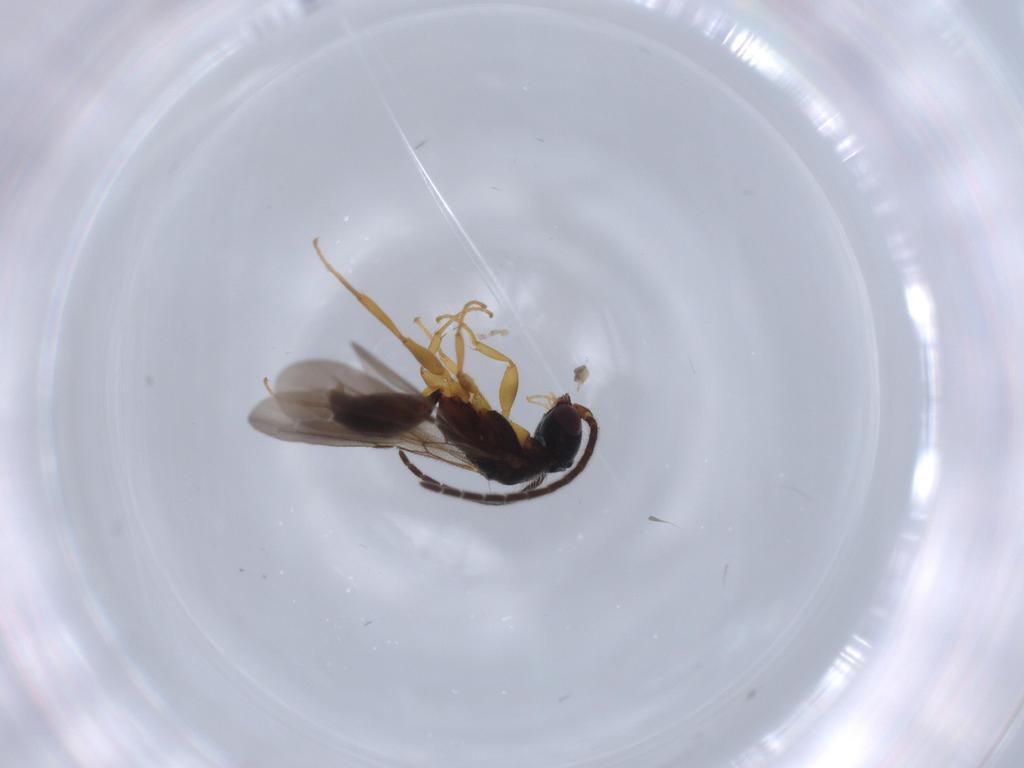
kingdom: Animalia
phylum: Arthropoda
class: Insecta
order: Hymenoptera
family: Bethylidae
